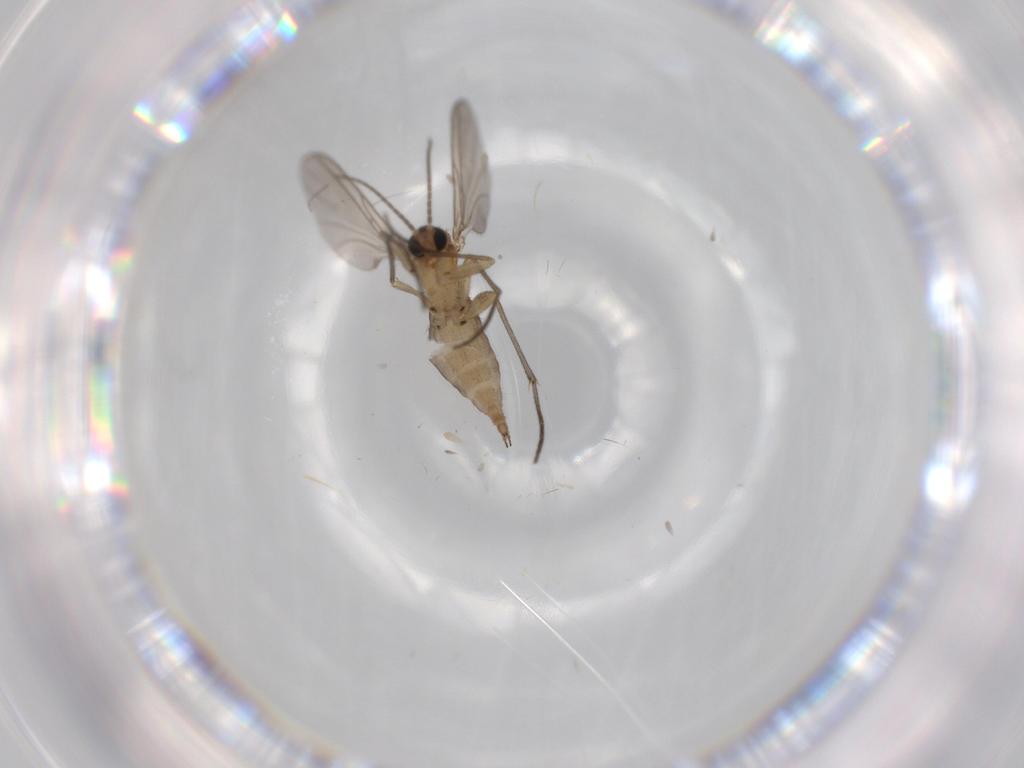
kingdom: Animalia
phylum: Arthropoda
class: Insecta
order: Diptera
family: Sciaridae
